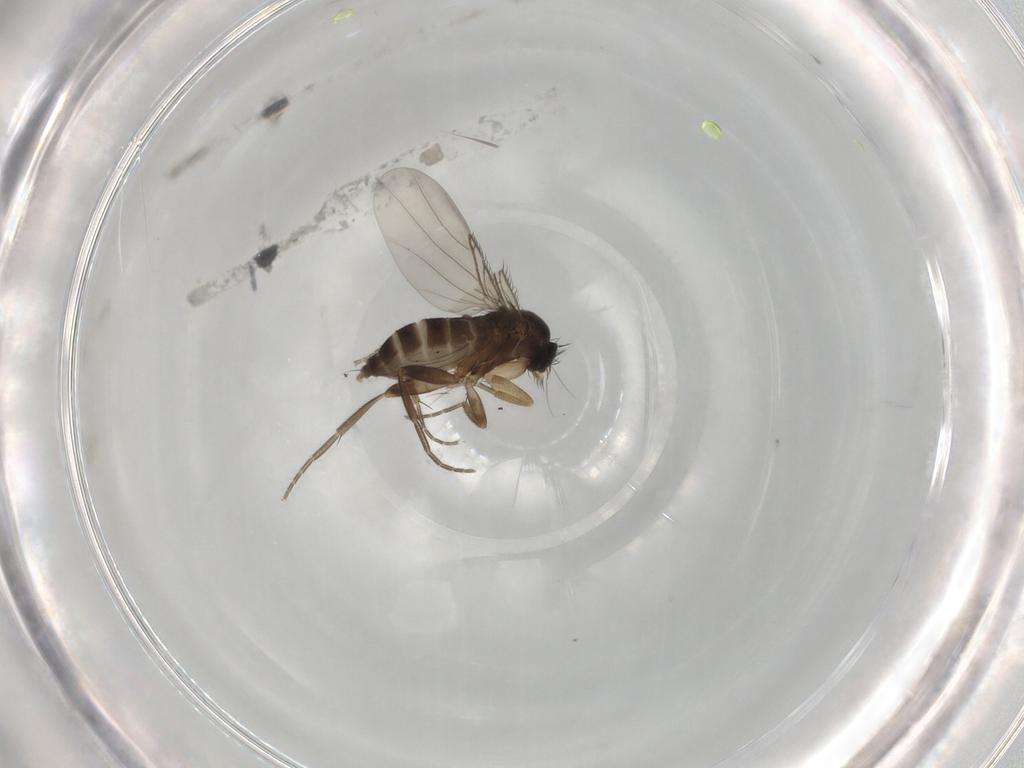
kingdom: Animalia
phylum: Arthropoda
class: Insecta
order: Diptera
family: Phoridae
